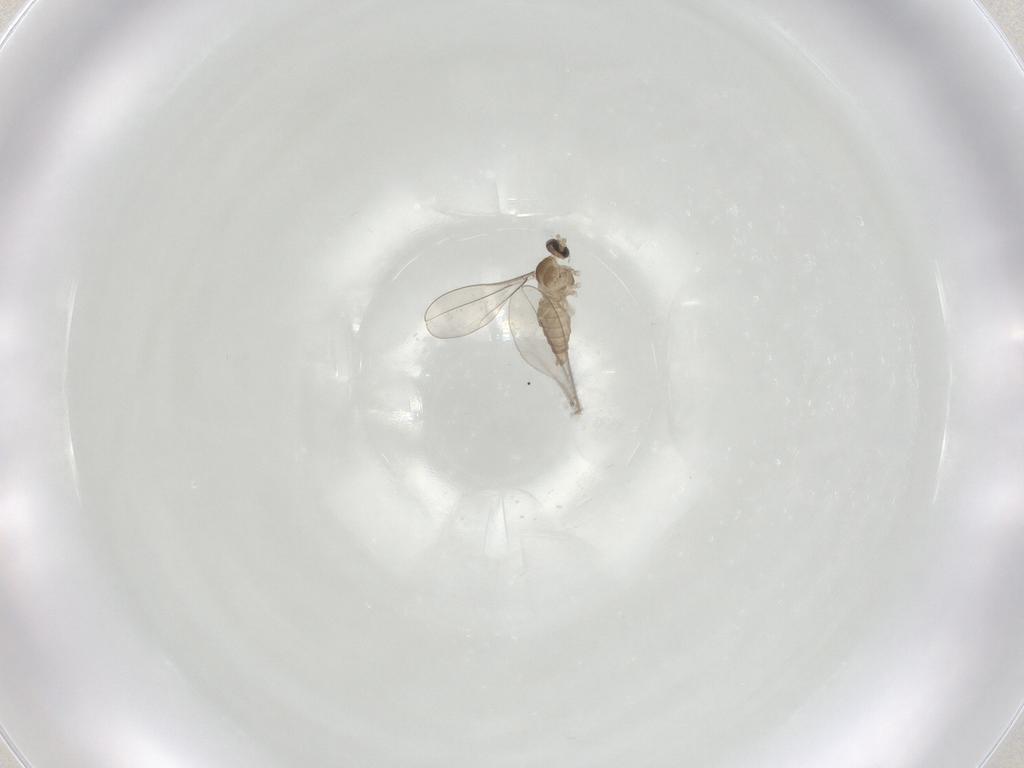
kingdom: Animalia
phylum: Arthropoda
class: Insecta
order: Diptera
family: Cecidomyiidae
